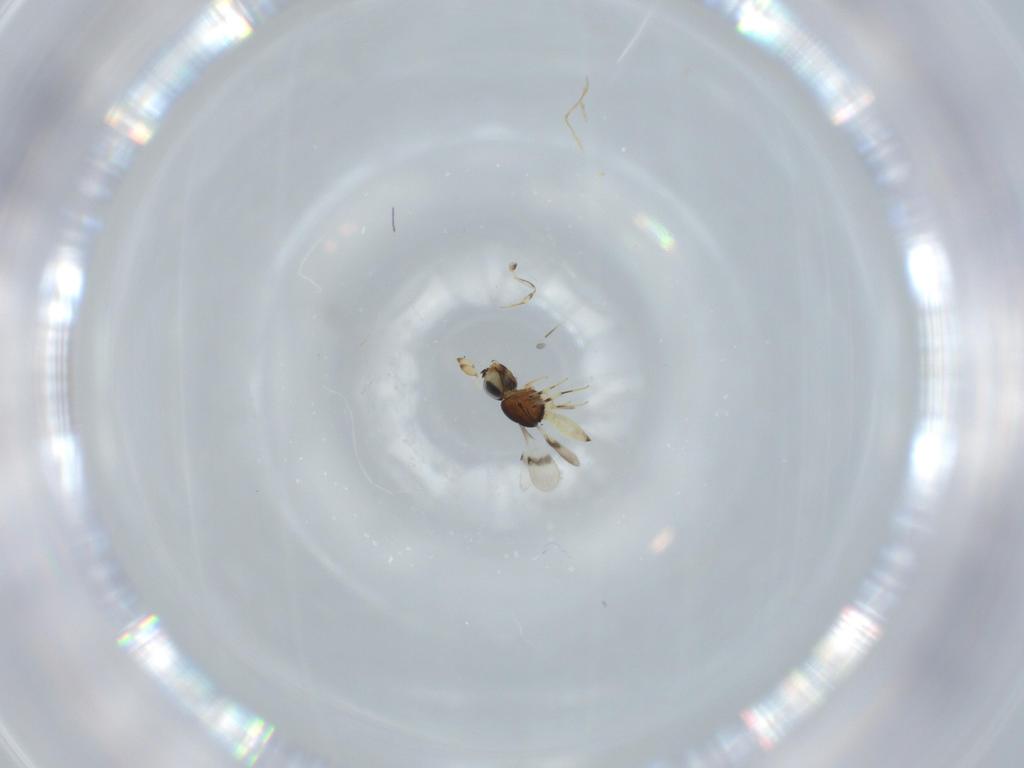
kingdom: Animalia
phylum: Arthropoda
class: Insecta
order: Hymenoptera
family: Scelionidae
